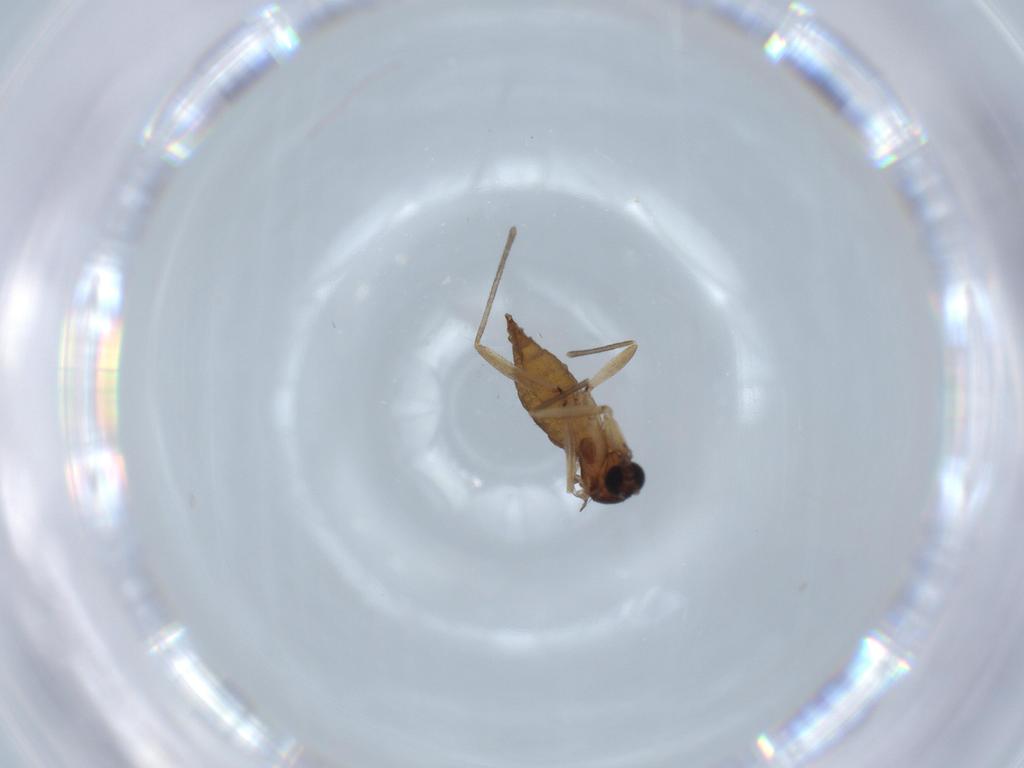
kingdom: Animalia
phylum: Arthropoda
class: Insecta
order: Diptera
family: Sciaridae
